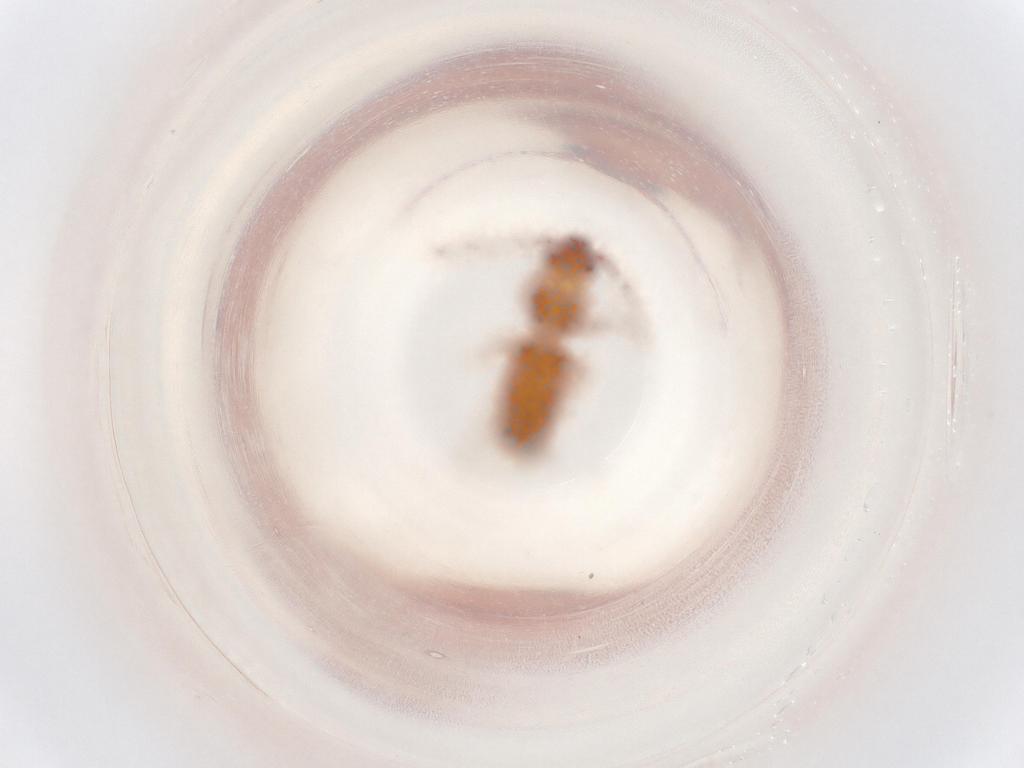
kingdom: Animalia
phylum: Arthropoda
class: Insecta
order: Coleoptera
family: Laemophloeidae
